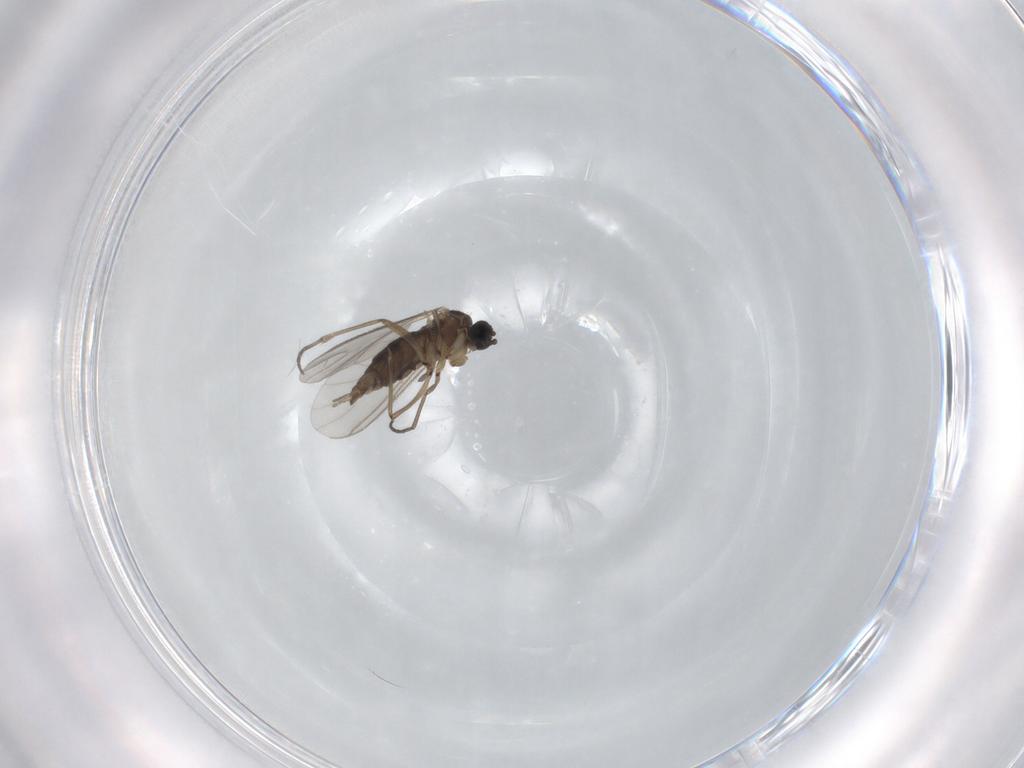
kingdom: Animalia
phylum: Arthropoda
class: Insecta
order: Diptera
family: Sciaridae
